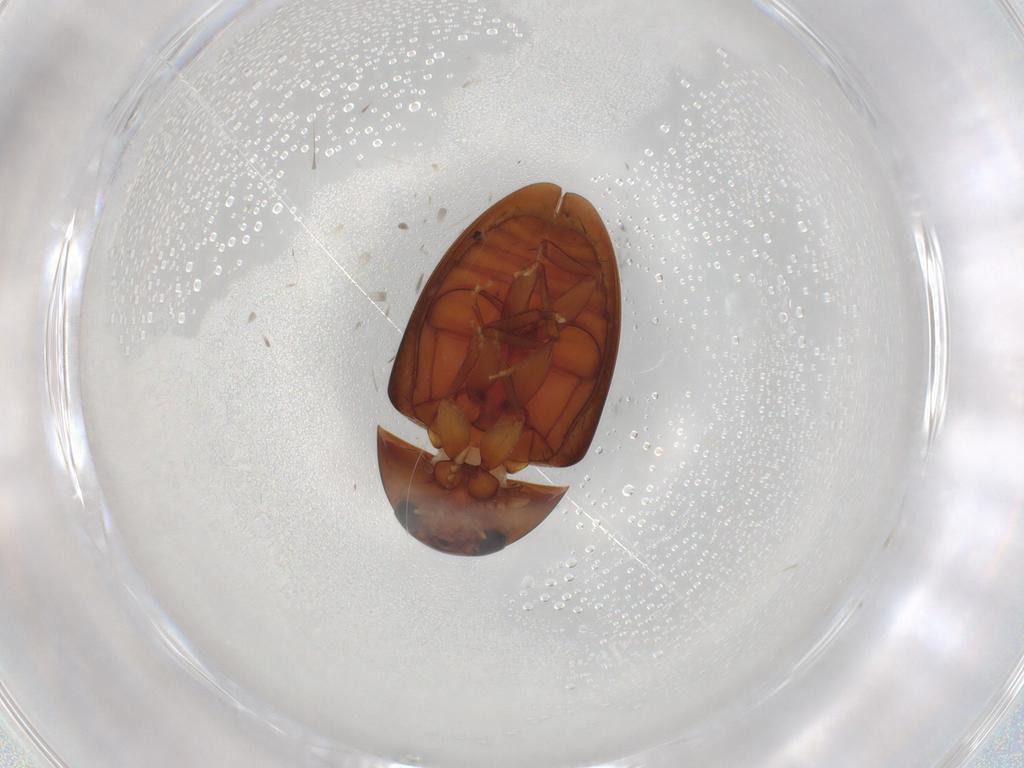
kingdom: Animalia
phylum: Arthropoda
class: Insecta
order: Coleoptera
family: Phalacridae
